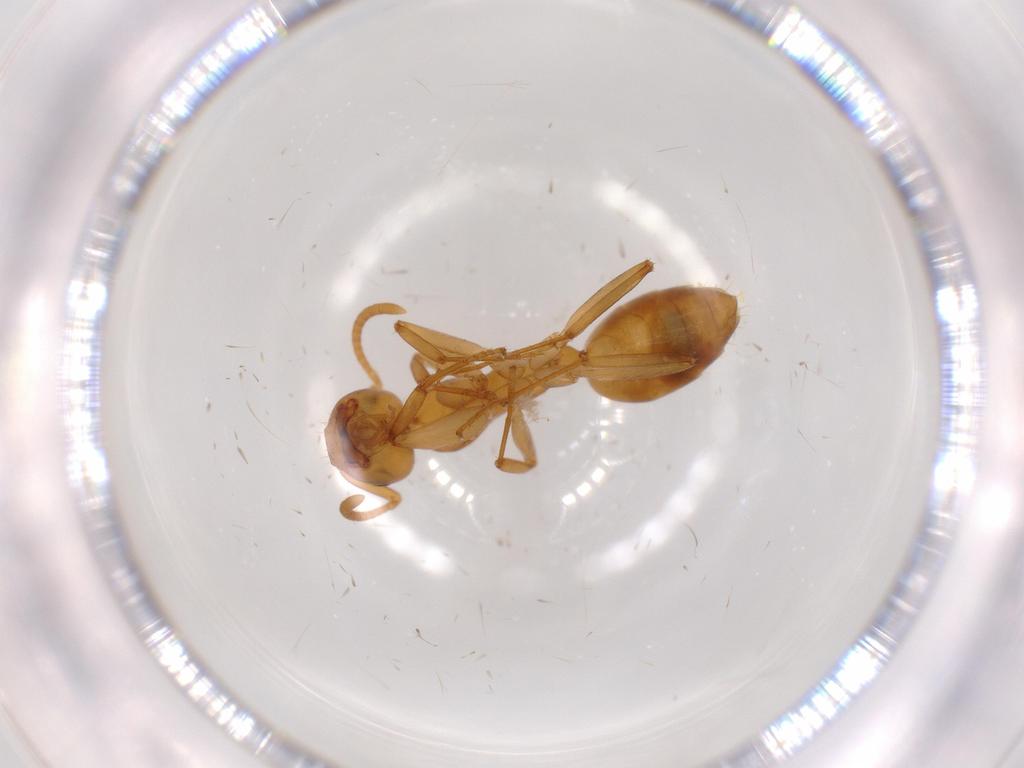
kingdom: Animalia
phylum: Arthropoda
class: Insecta
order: Hymenoptera
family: Formicidae
